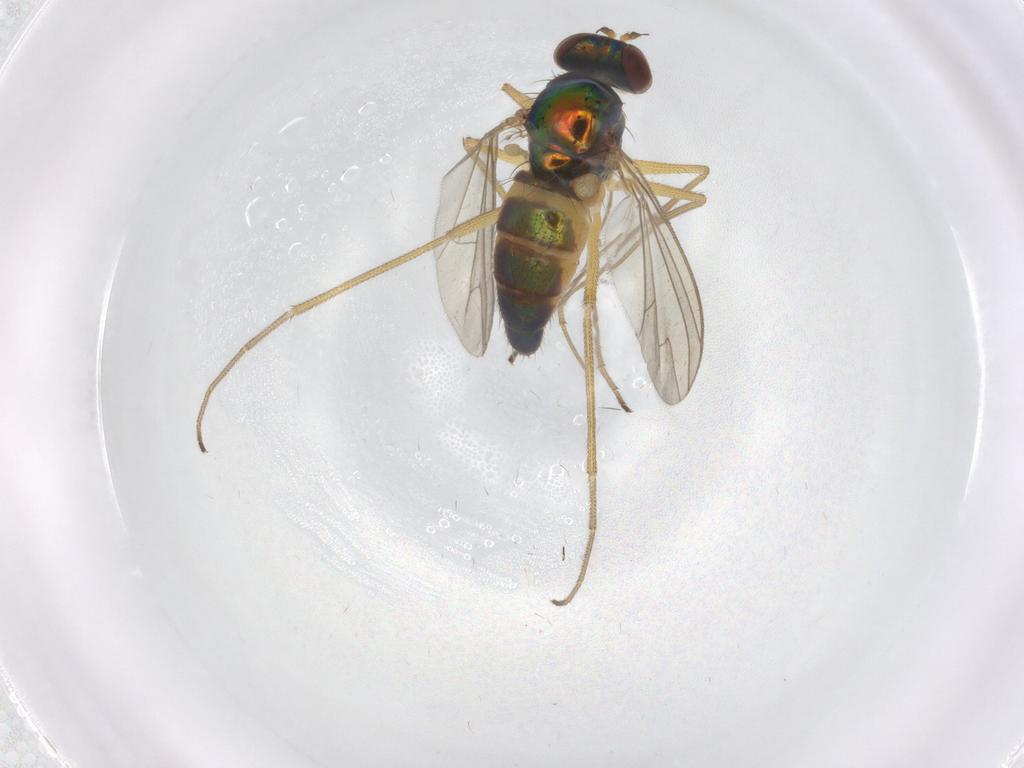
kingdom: Animalia
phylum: Arthropoda
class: Insecta
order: Diptera
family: Dolichopodidae
